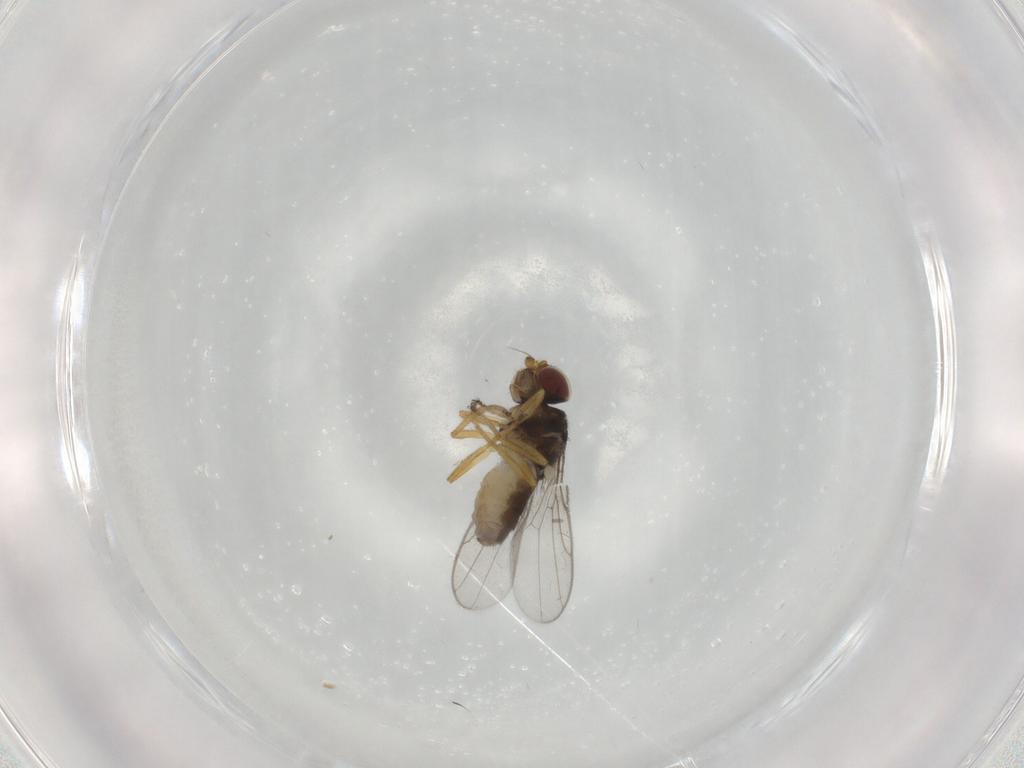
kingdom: Animalia
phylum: Arthropoda
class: Insecta
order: Diptera
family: Chloropidae
